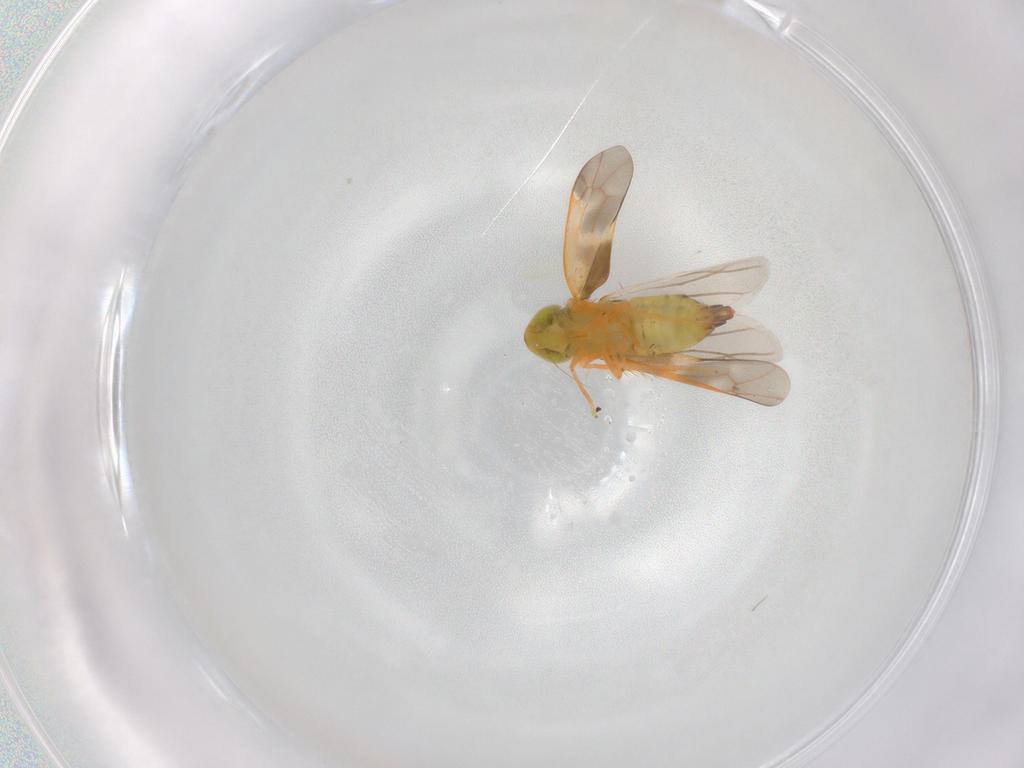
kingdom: Animalia
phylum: Arthropoda
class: Insecta
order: Hemiptera
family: Cicadellidae
